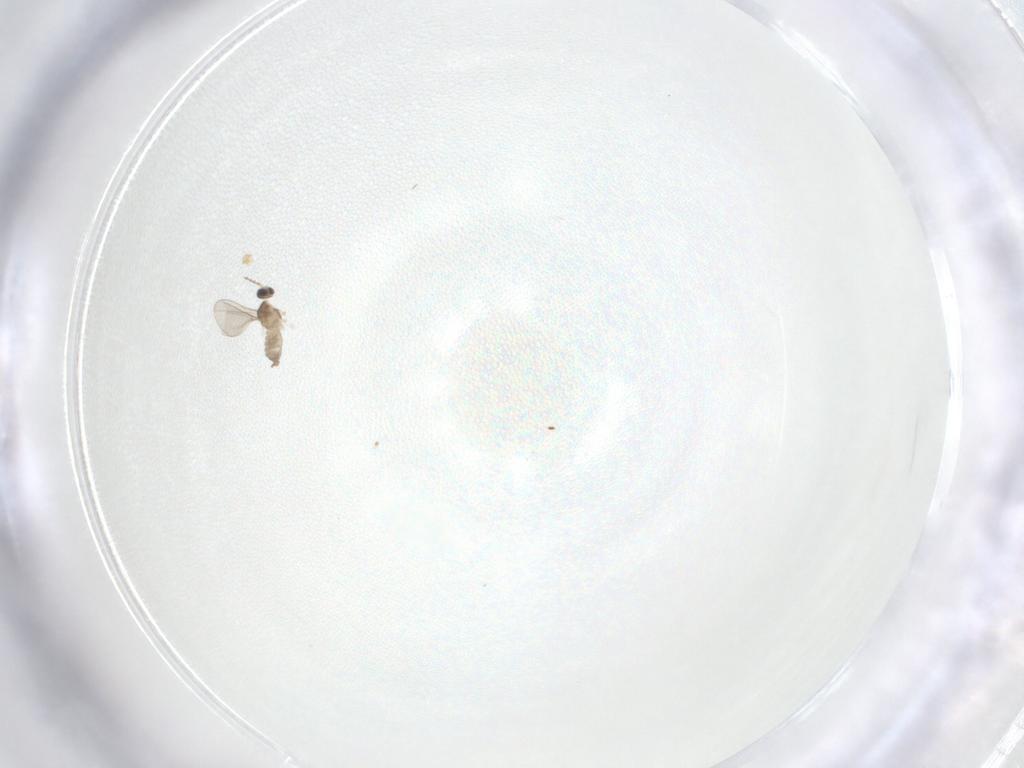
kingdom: Animalia
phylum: Arthropoda
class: Insecta
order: Diptera
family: Cecidomyiidae
